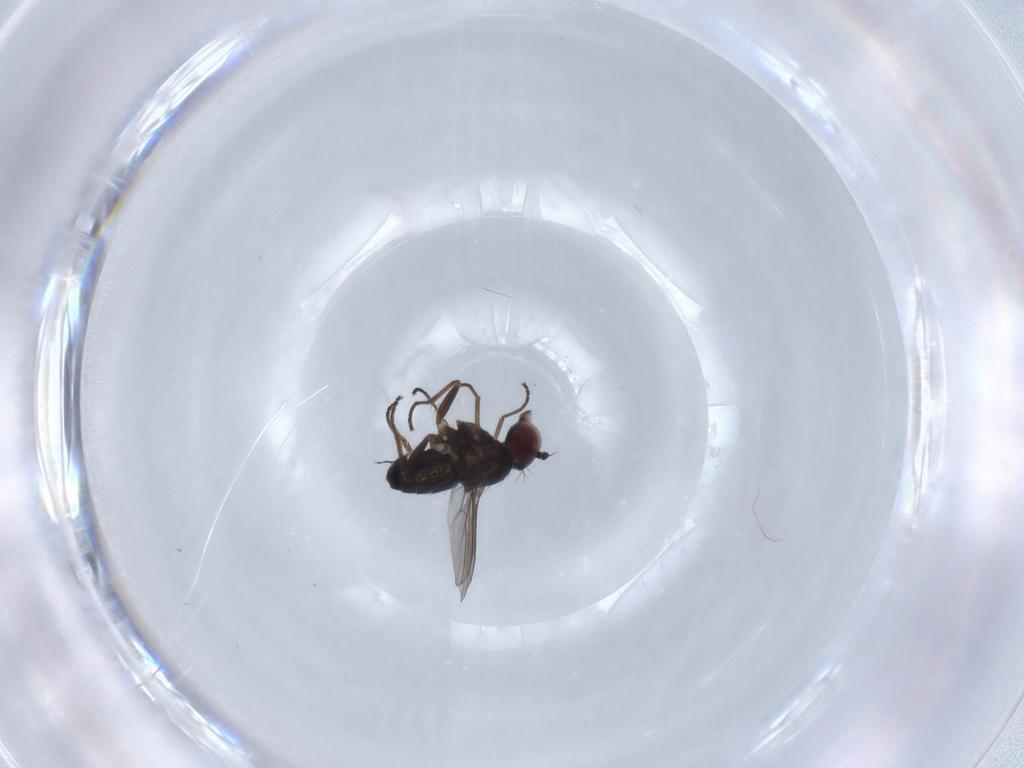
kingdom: Animalia
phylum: Arthropoda
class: Insecta
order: Diptera
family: Dolichopodidae
